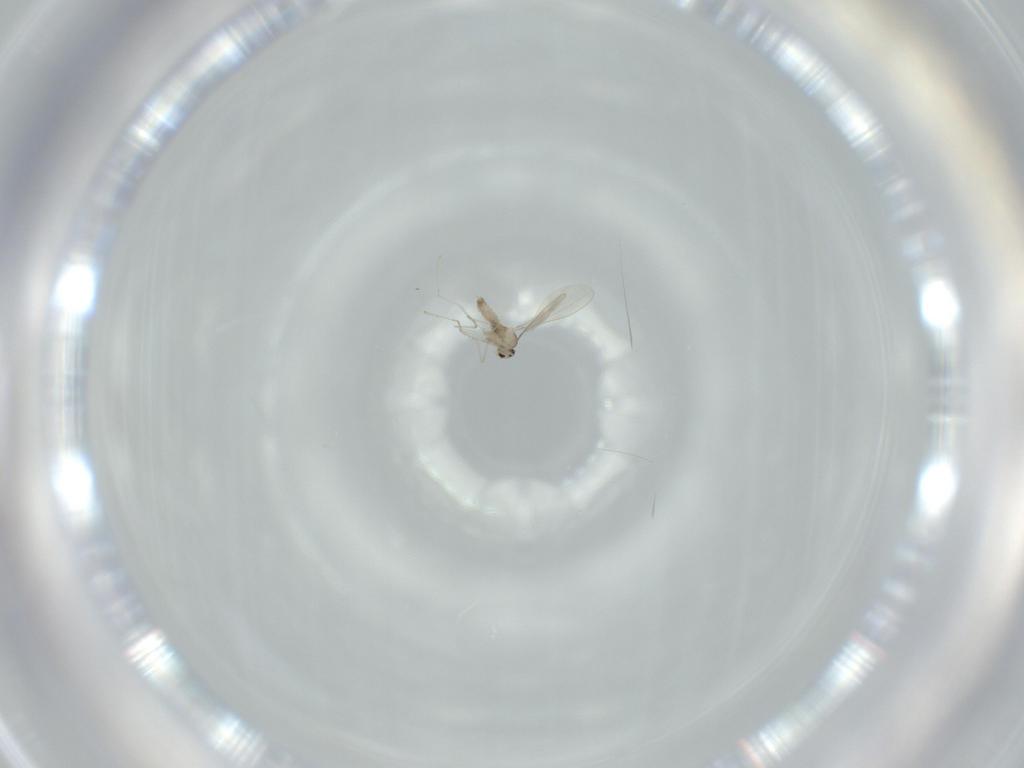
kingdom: Animalia
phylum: Arthropoda
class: Insecta
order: Diptera
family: Cecidomyiidae
